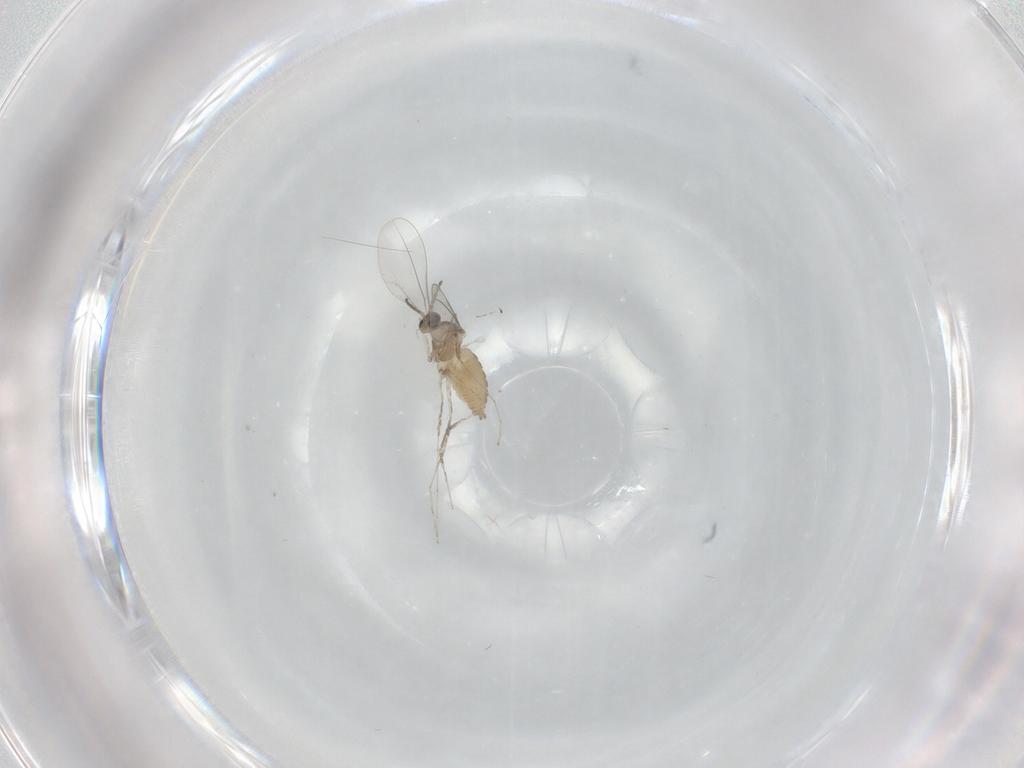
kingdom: Animalia
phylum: Arthropoda
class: Insecta
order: Diptera
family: Cecidomyiidae
